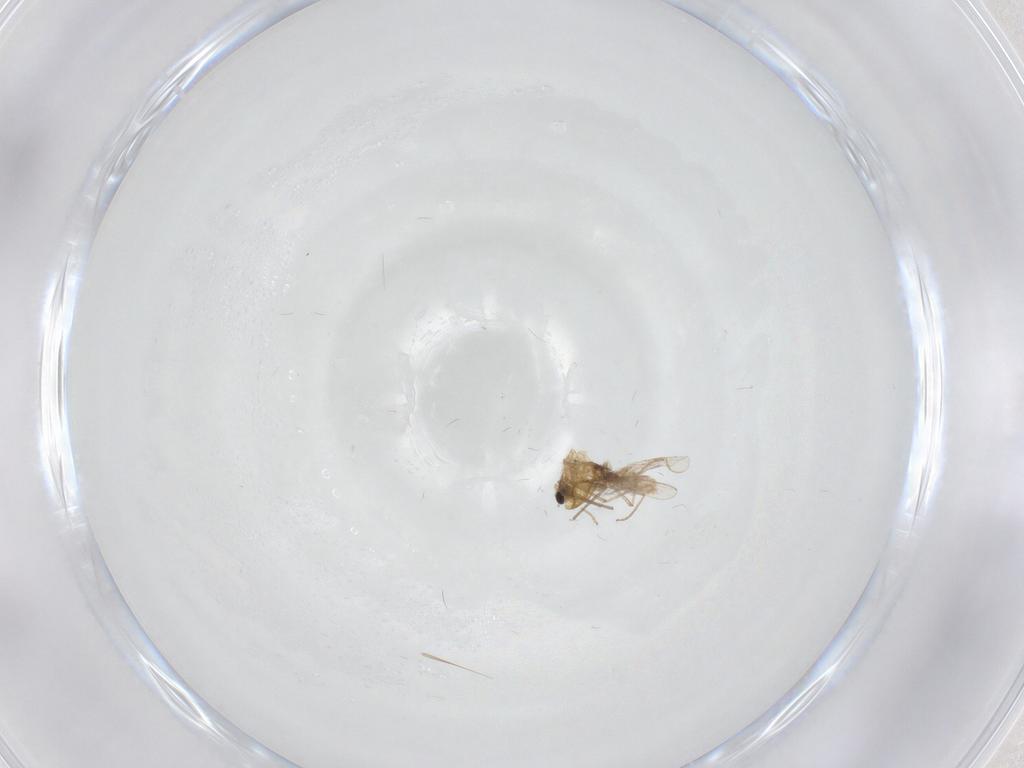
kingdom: Animalia
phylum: Arthropoda
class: Insecta
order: Diptera
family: Chironomidae
